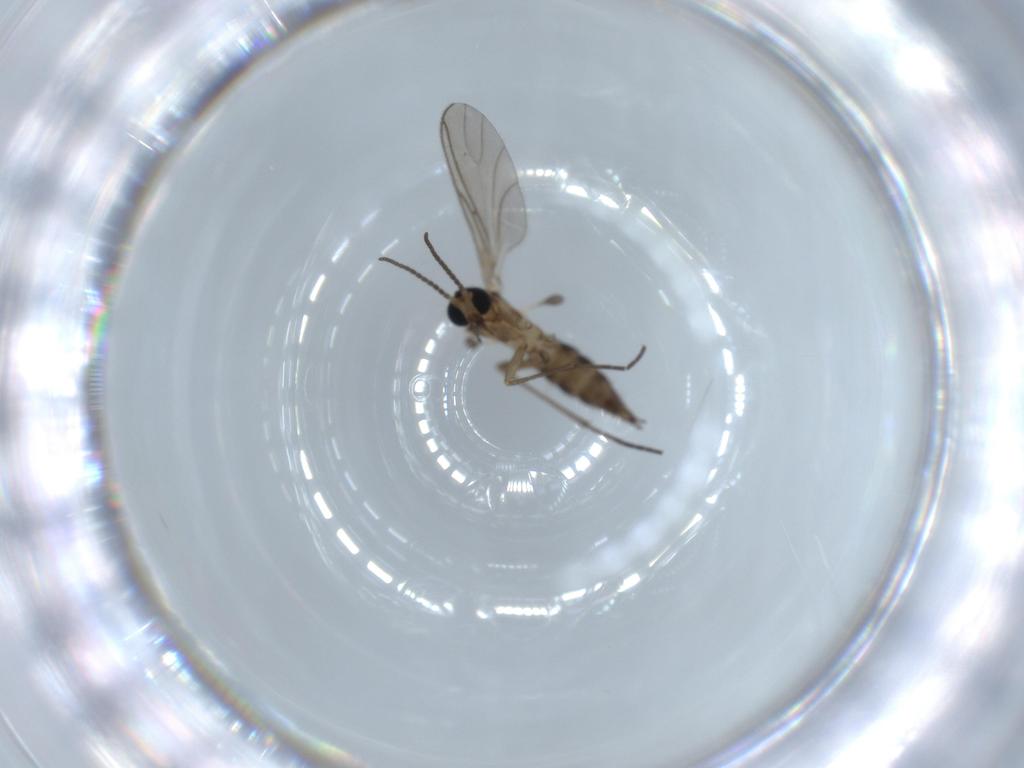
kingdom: Animalia
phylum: Arthropoda
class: Insecta
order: Diptera
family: Sciaridae
